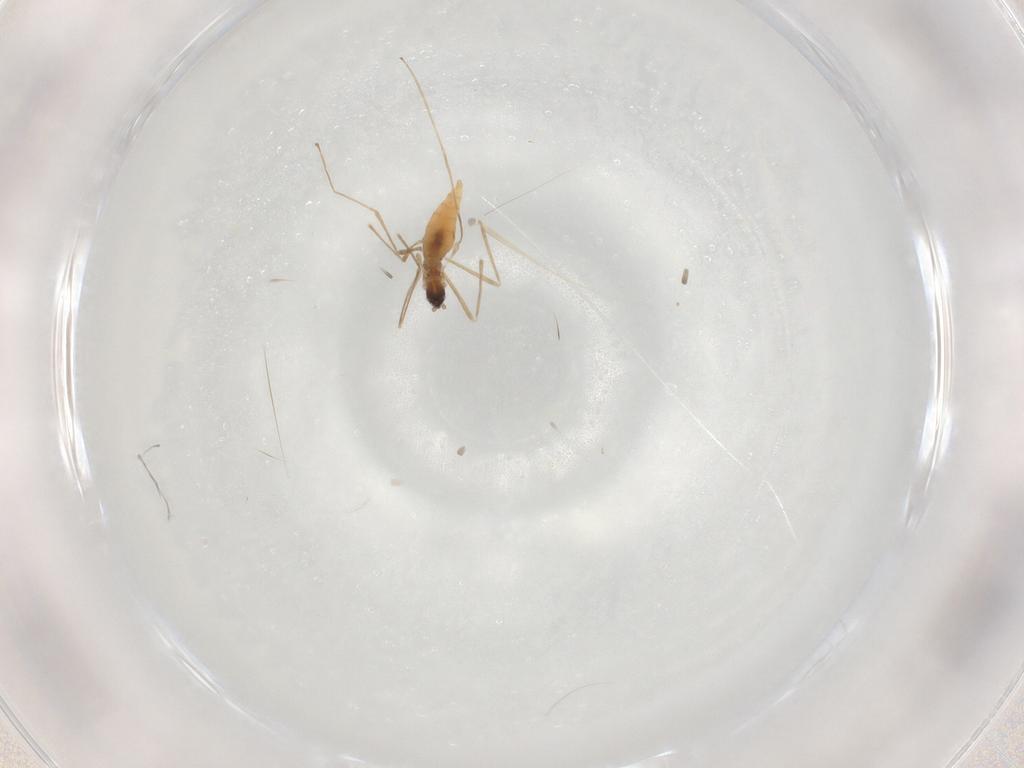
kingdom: Animalia
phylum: Arthropoda
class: Insecta
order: Diptera
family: Cecidomyiidae
